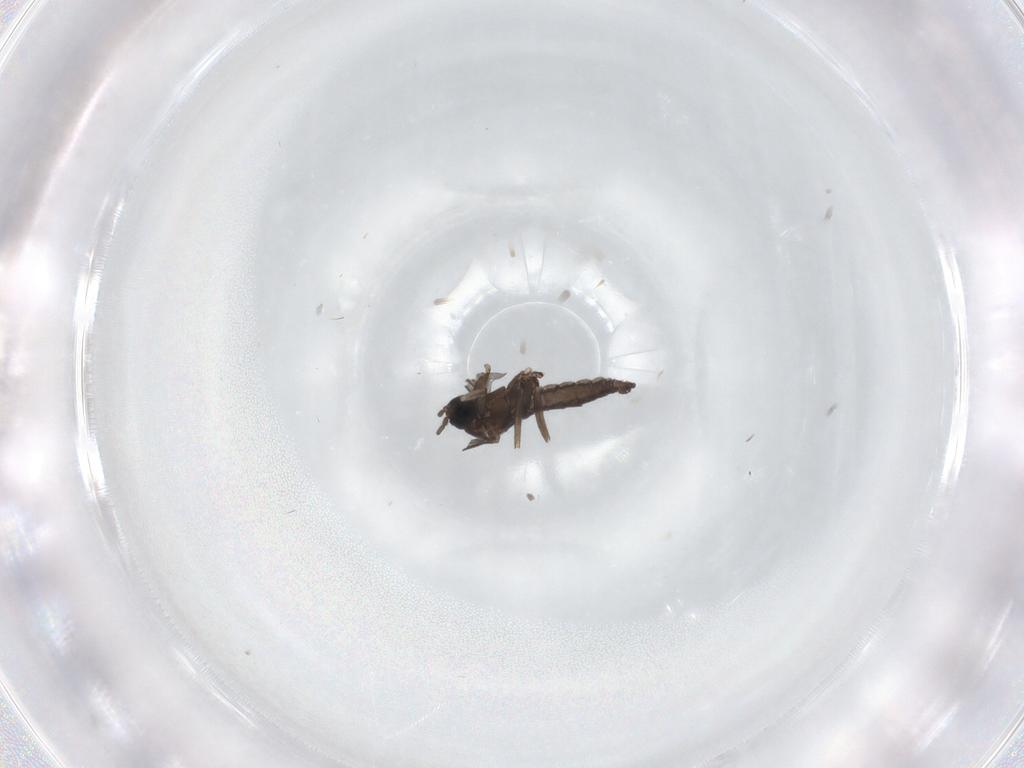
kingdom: Animalia
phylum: Arthropoda
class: Insecta
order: Diptera
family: Sciaridae
